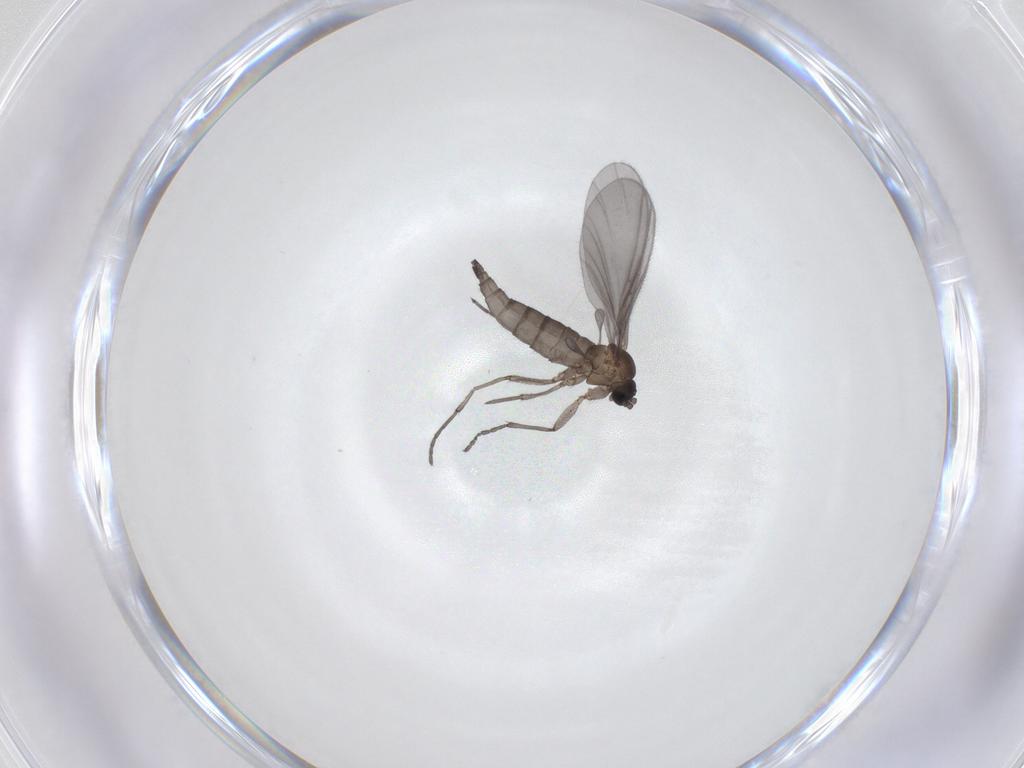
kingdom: Animalia
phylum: Arthropoda
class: Insecta
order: Diptera
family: Sciaridae
